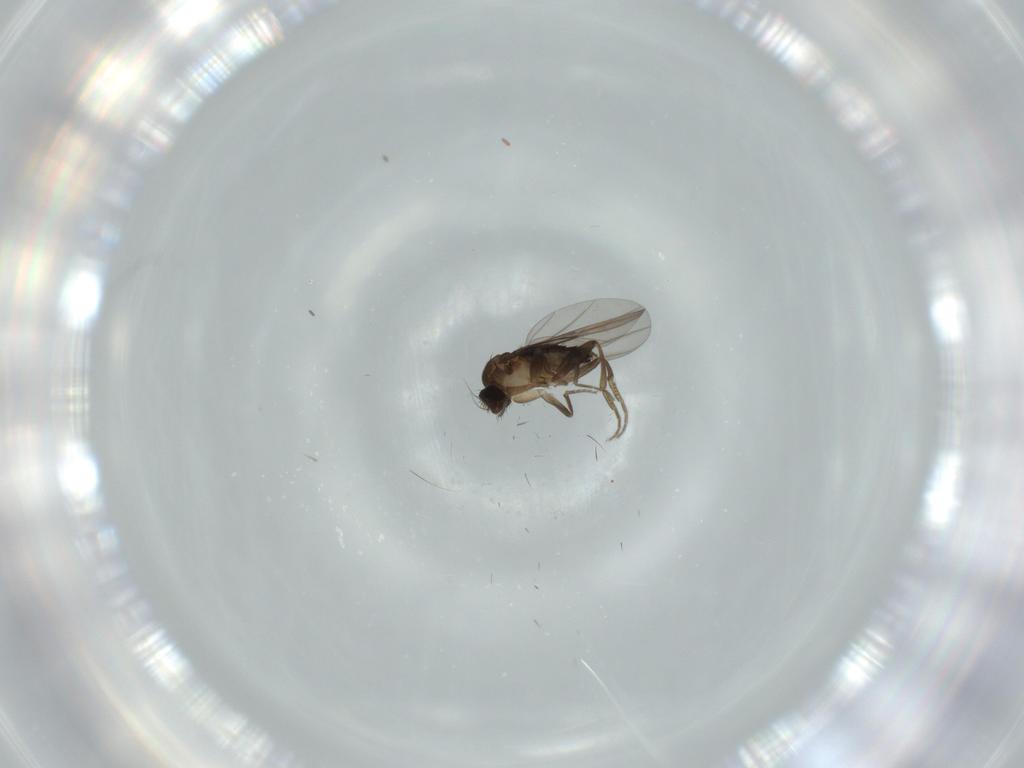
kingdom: Animalia
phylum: Arthropoda
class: Insecta
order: Diptera
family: Phoridae
